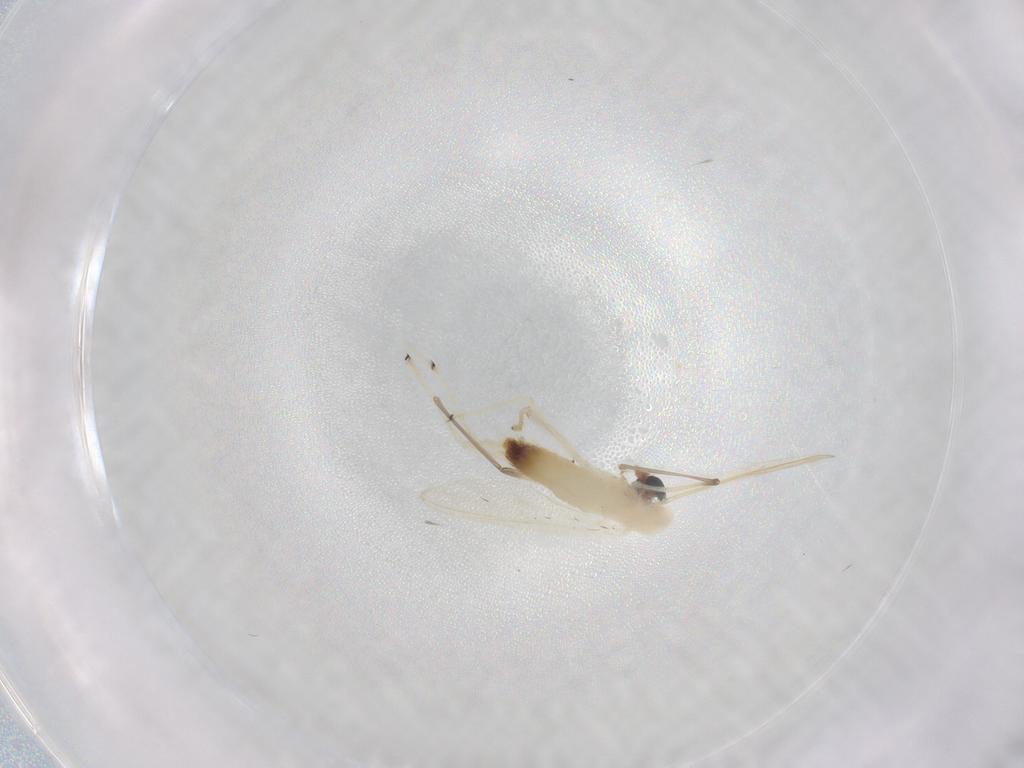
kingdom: Animalia
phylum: Arthropoda
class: Insecta
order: Diptera
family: Chironomidae
